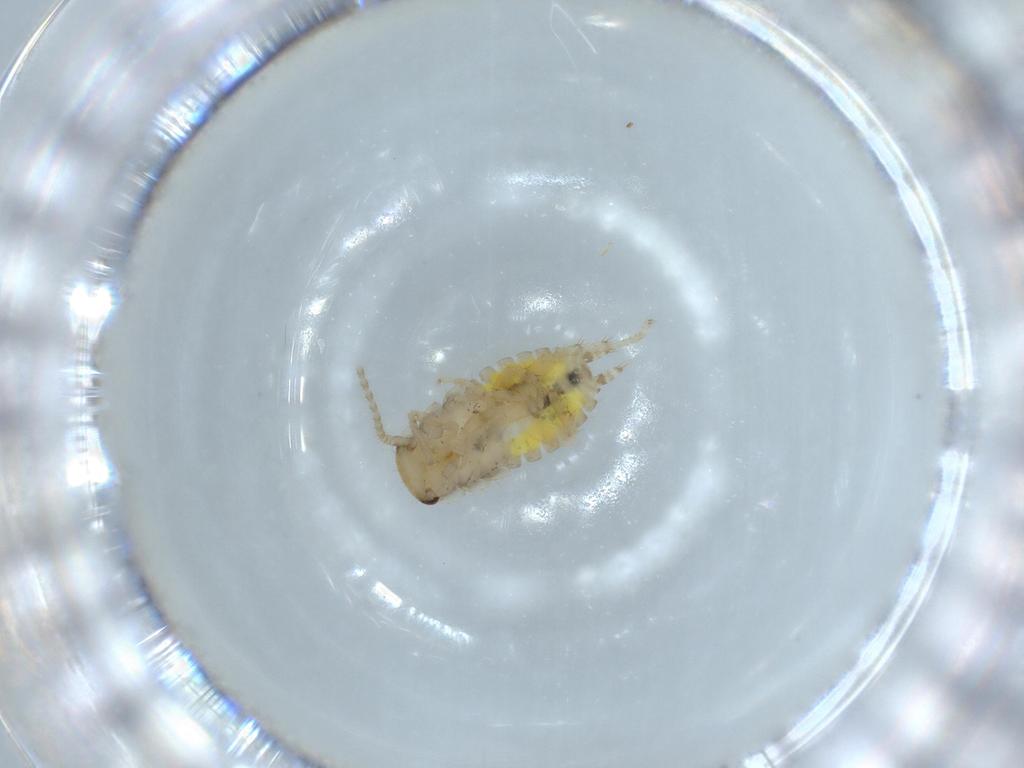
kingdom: Animalia
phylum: Arthropoda
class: Insecta
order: Blattodea
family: Ectobiidae
